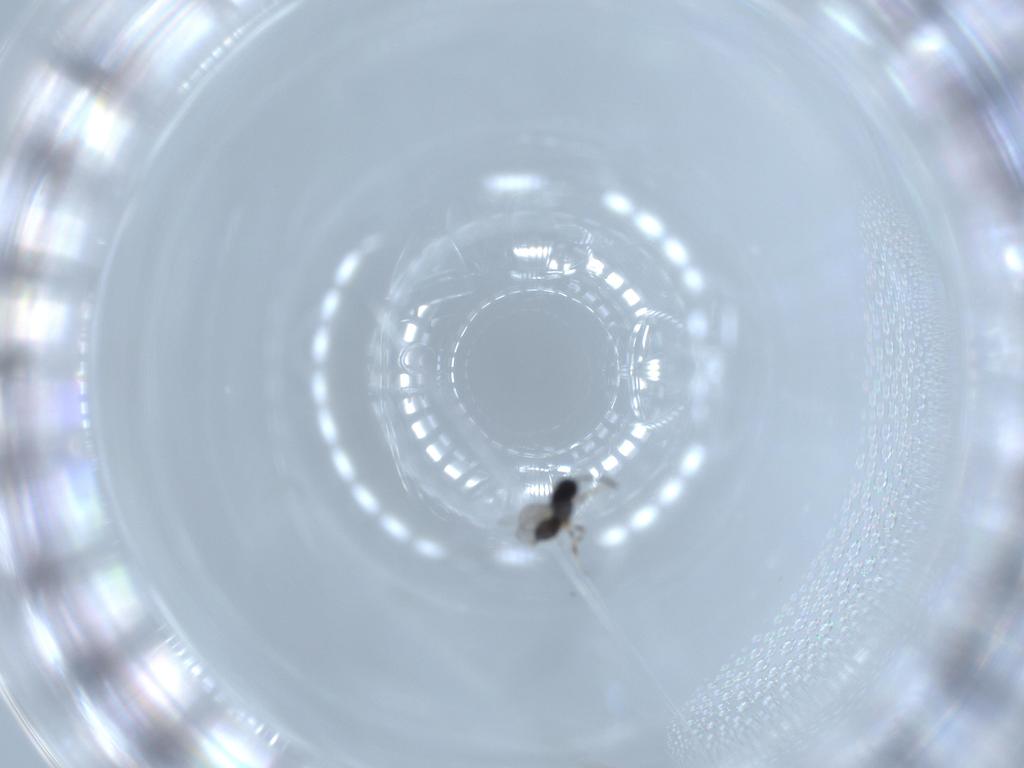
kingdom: Animalia
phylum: Arthropoda
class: Insecta
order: Hymenoptera
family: Scelionidae
